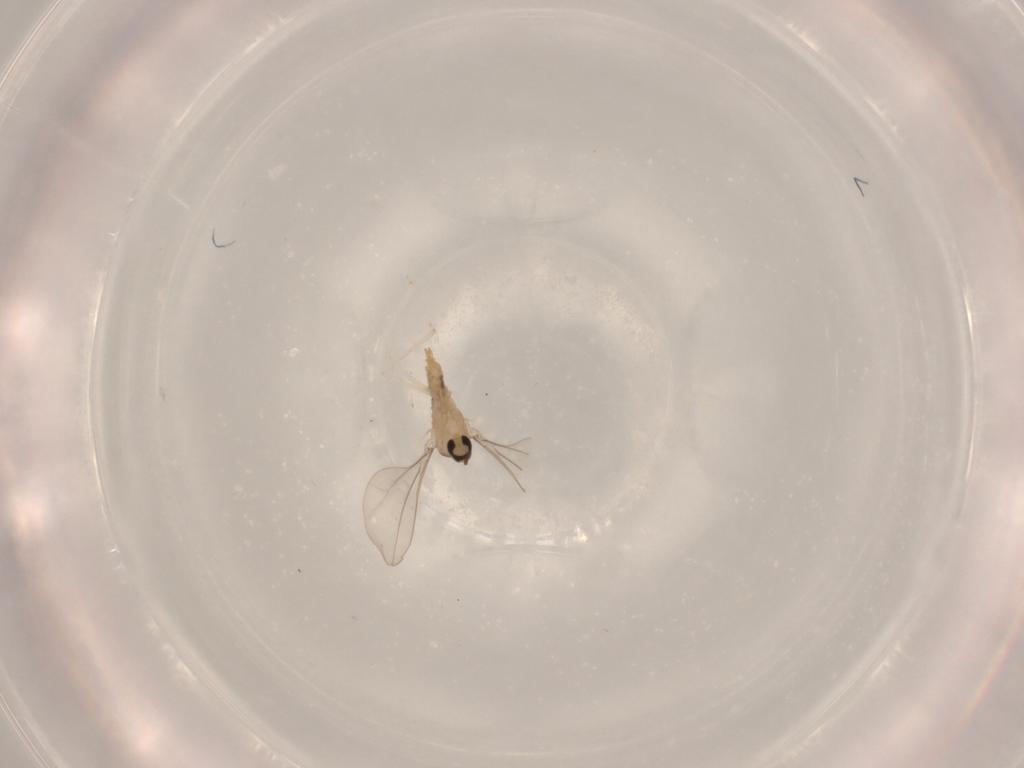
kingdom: Animalia
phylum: Arthropoda
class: Insecta
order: Diptera
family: Cecidomyiidae
